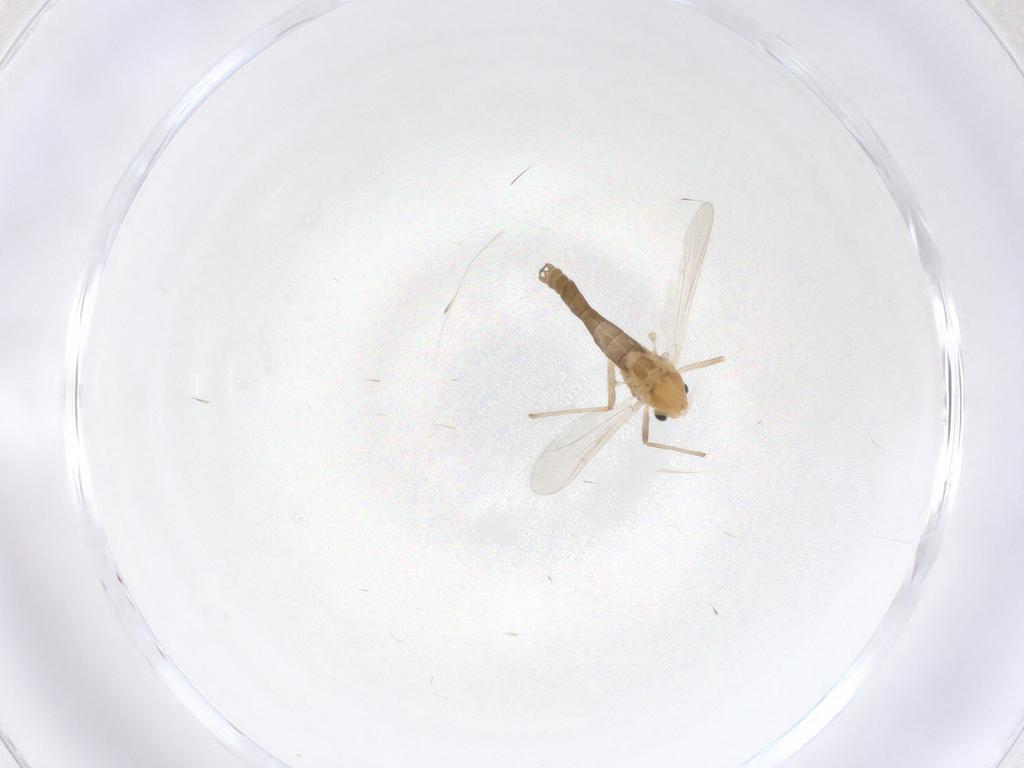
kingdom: Animalia
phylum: Arthropoda
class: Insecta
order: Diptera
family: Chironomidae
